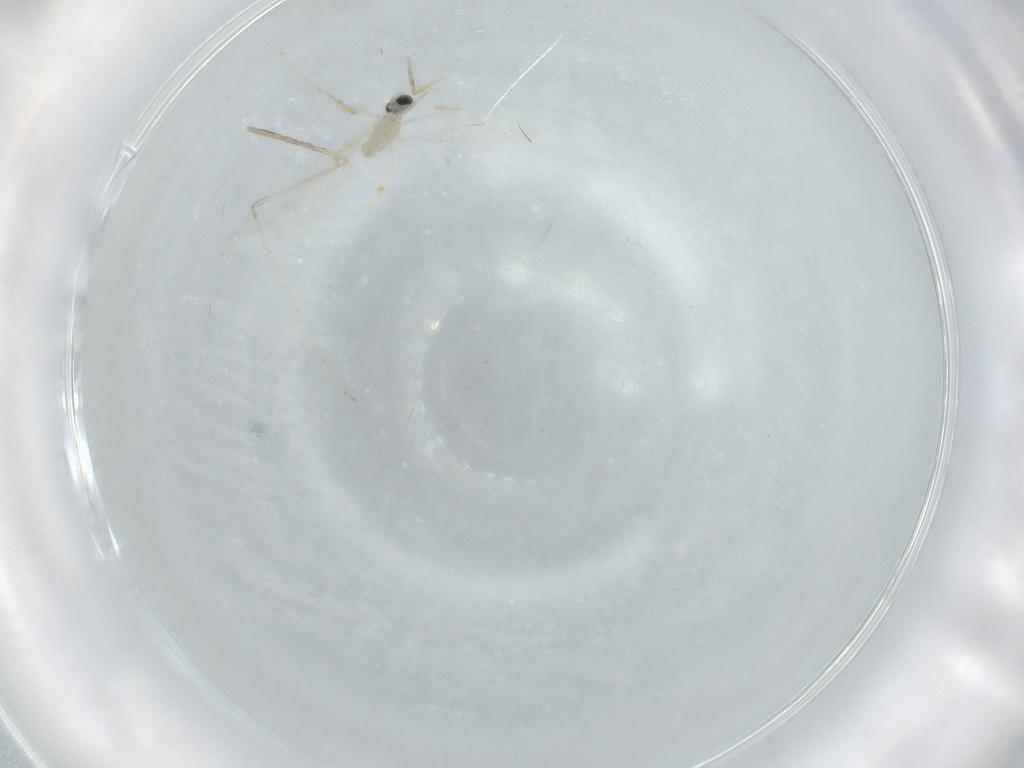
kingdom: Animalia
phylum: Arthropoda
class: Insecta
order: Diptera
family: Cecidomyiidae
